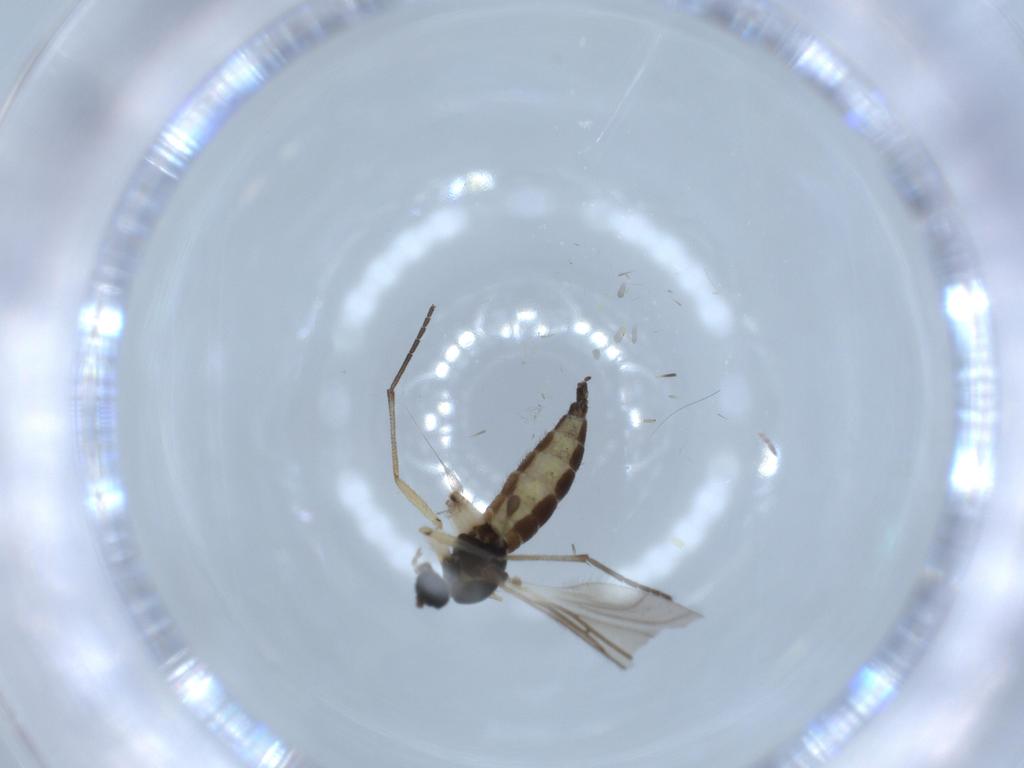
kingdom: Animalia
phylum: Arthropoda
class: Insecta
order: Diptera
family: Sciaridae
